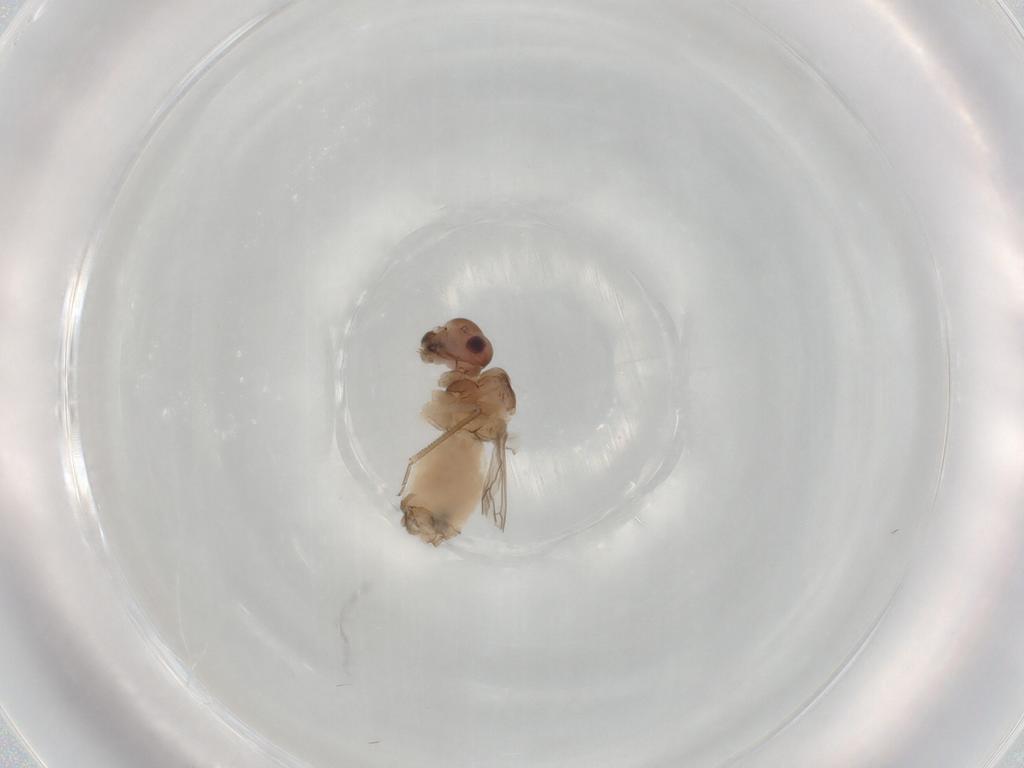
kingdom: Animalia
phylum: Arthropoda
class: Insecta
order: Psocodea
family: Peripsocidae
